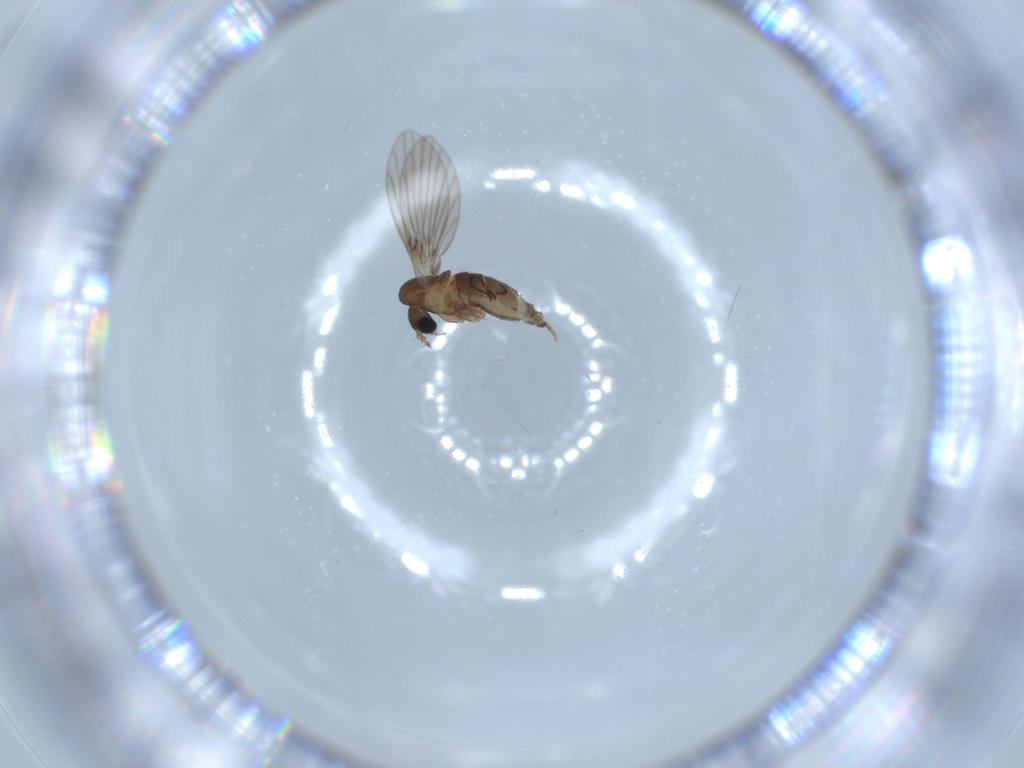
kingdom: Animalia
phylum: Arthropoda
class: Insecta
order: Diptera
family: Psychodidae
